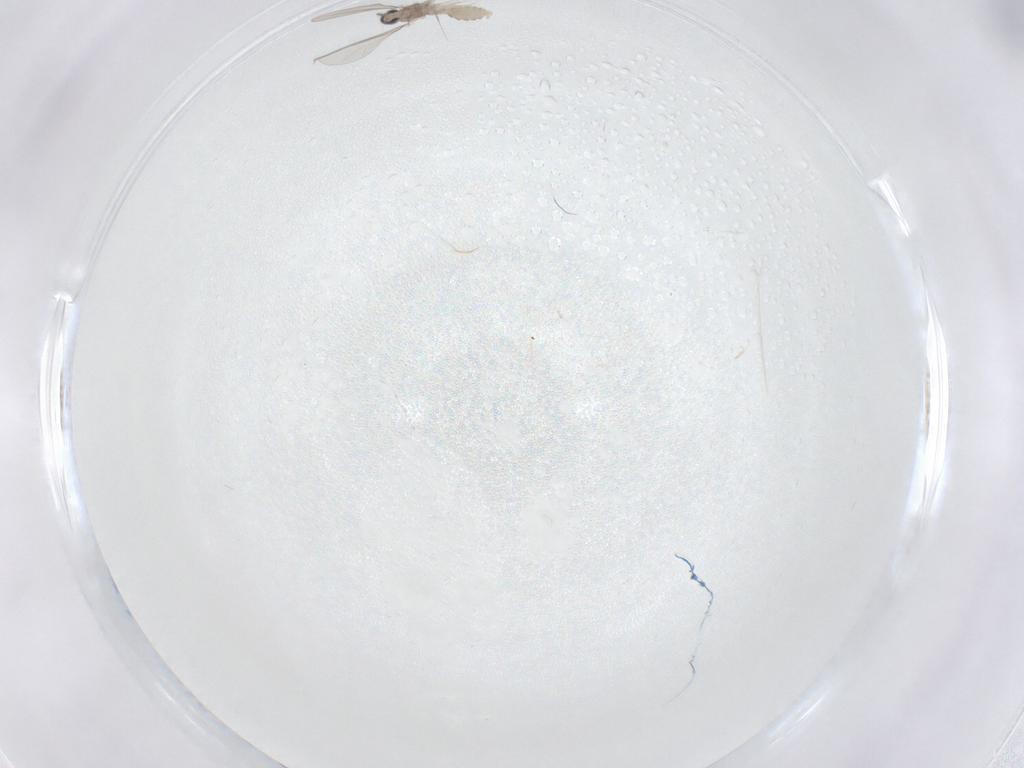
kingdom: Animalia
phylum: Arthropoda
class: Insecta
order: Diptera
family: Cecidomyiidae
